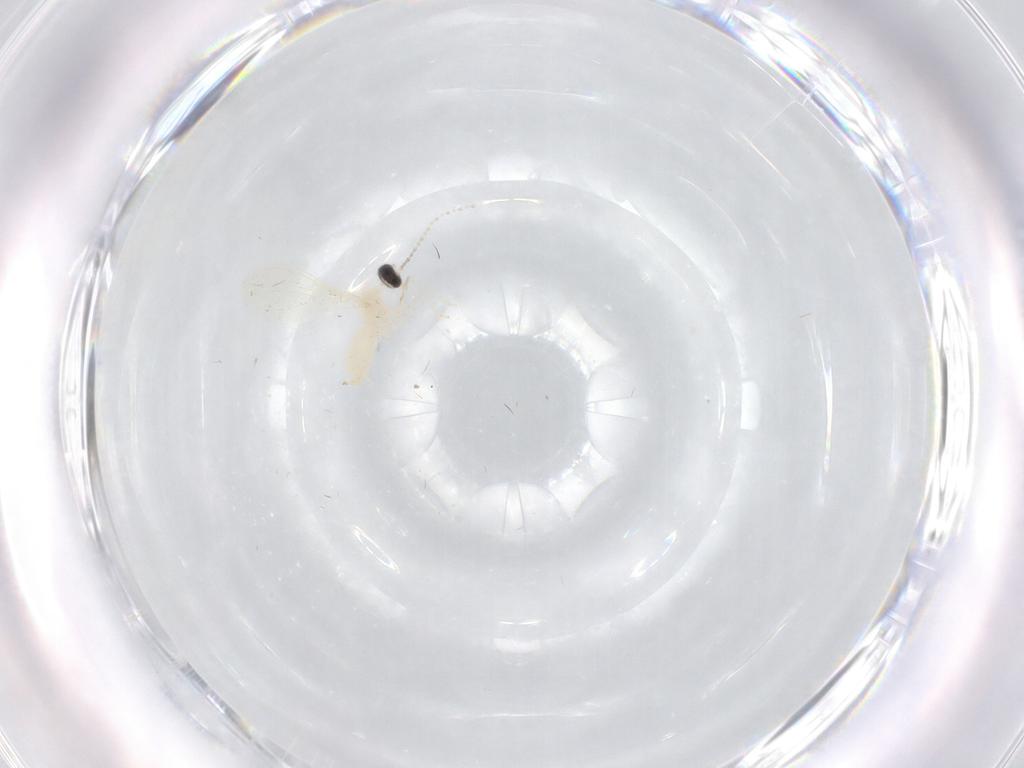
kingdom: Animalia
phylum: Arthropoda
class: Insecta
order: Diptera
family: Cecidomyiidae
